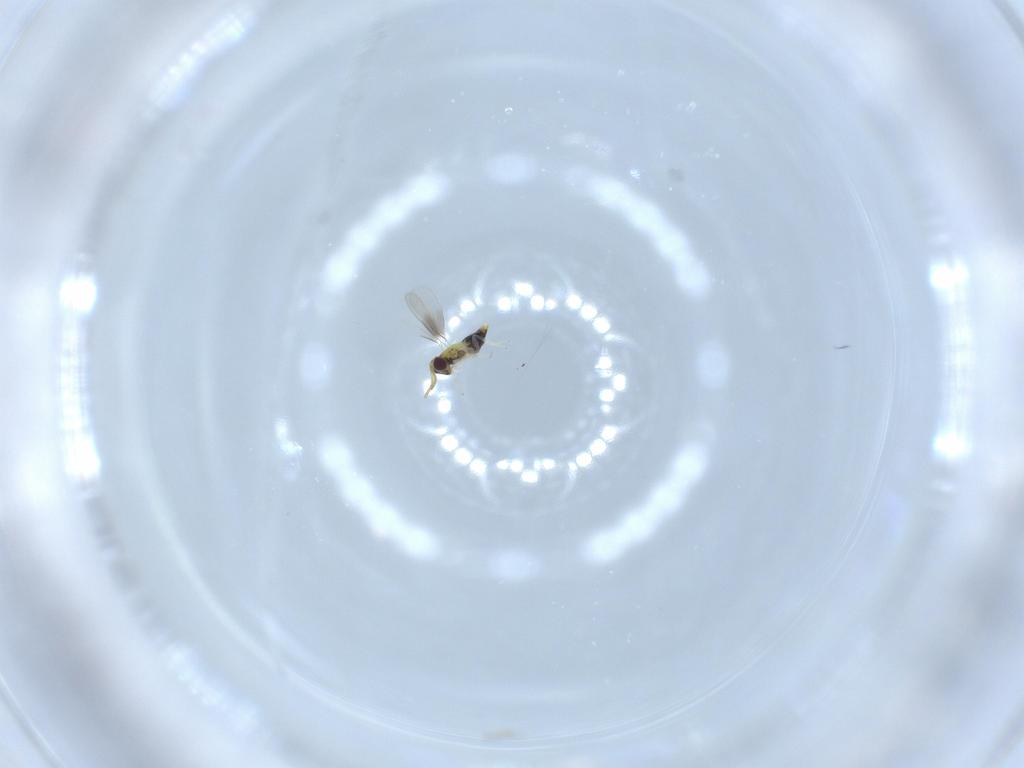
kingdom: Animalia
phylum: Arthropoda
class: Insecta
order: Hymenoptera
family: Aphelinidae
